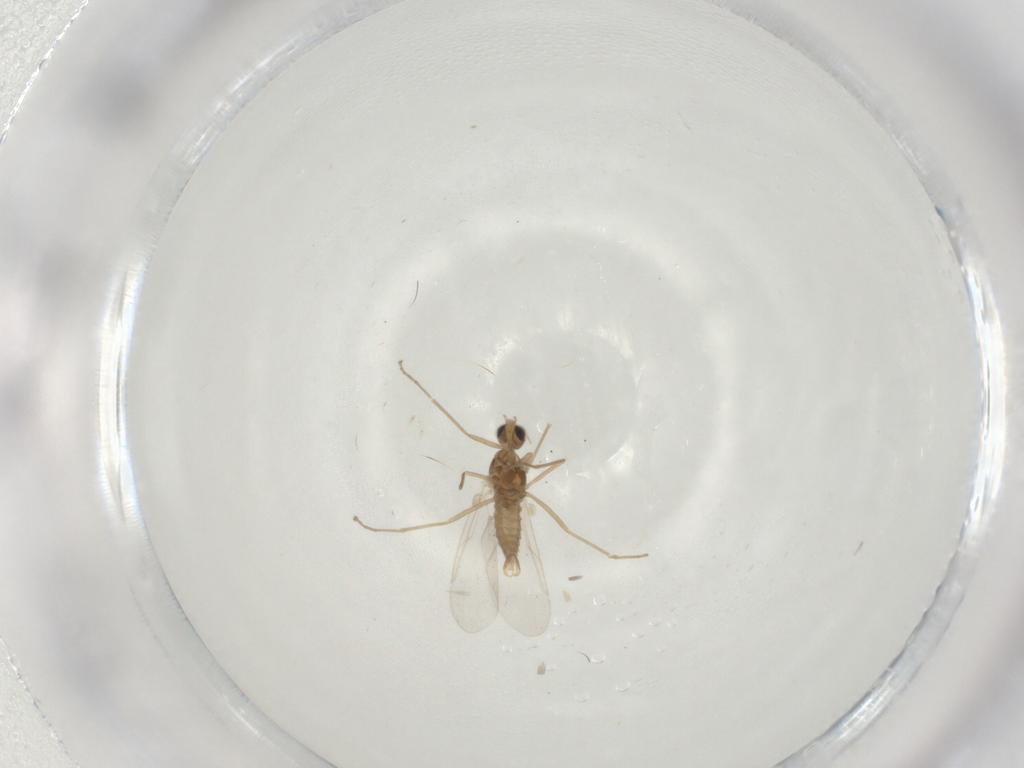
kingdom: Animalia
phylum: Arthropoda
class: Insecta
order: Diptera
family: Cecidomyiidae
